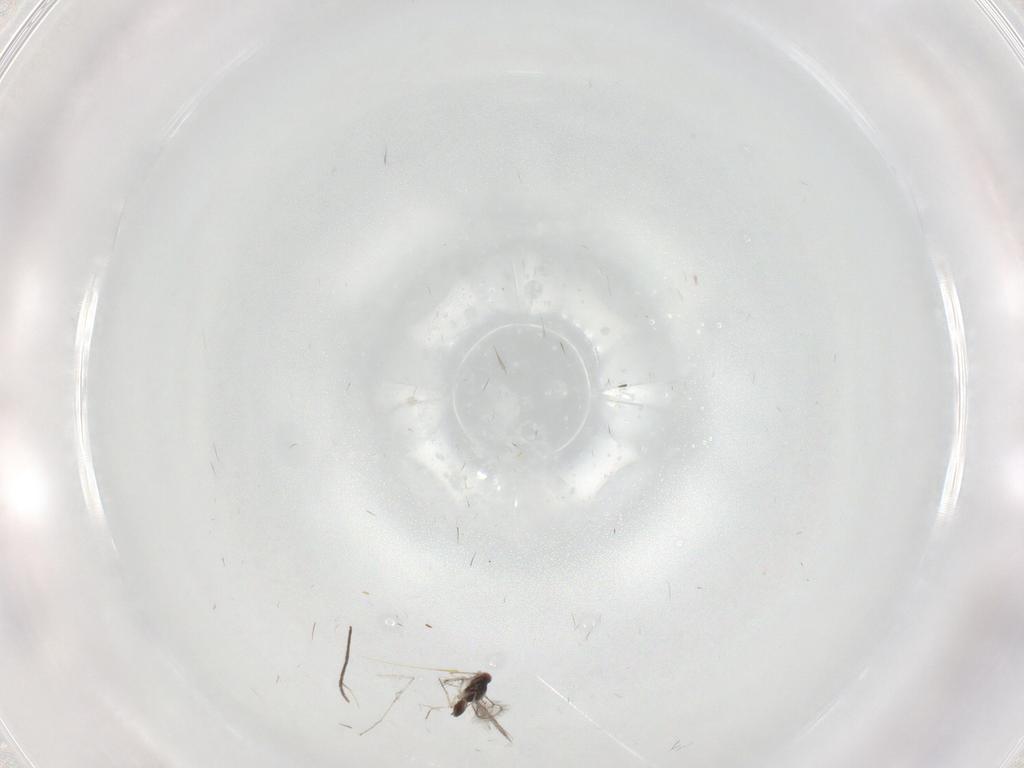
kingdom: Animalia
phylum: Arthropoda
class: Insecta
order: Hymenoptera
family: Eulophidae
